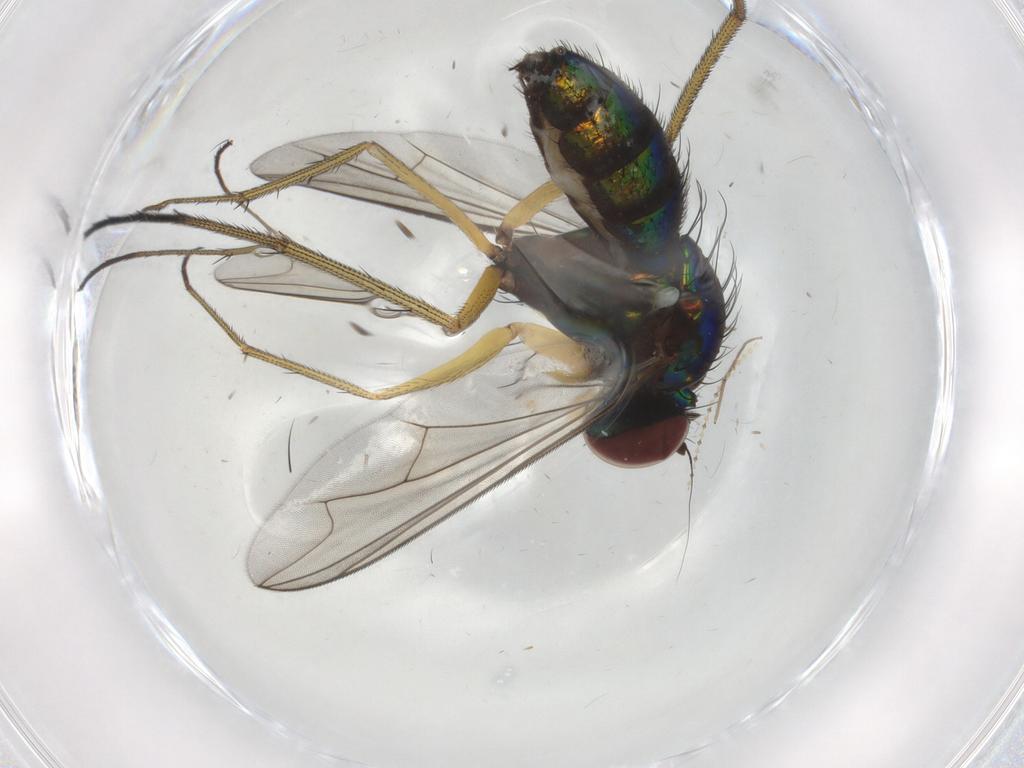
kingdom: Animalia
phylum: Arthropoda
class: Insecta
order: Diptera
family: Dolichopodidae
